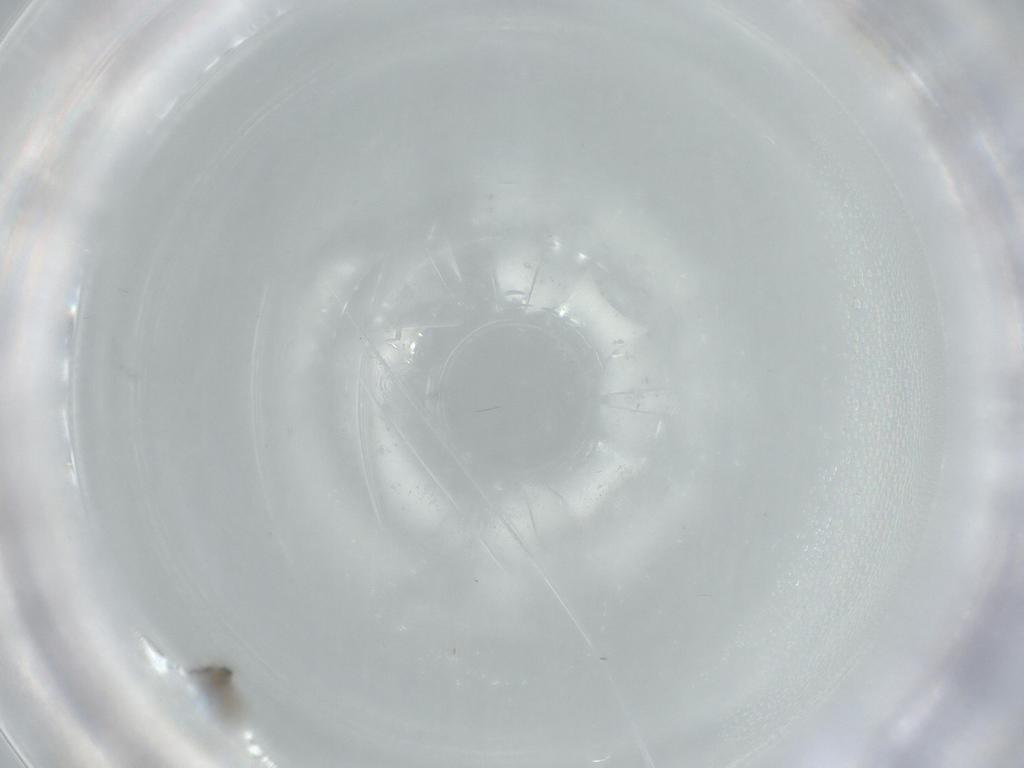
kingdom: Animalia
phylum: Arthropoda
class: Insecta
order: Diptera
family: Cecidomyiidae
